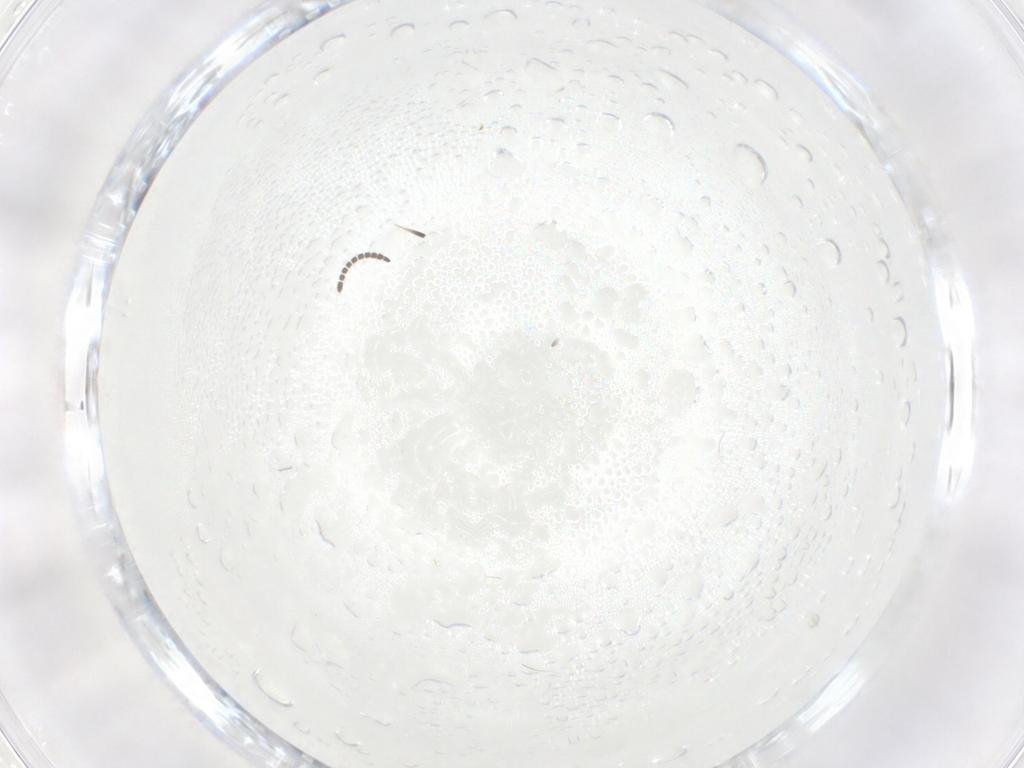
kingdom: Animalia
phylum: Arthropoda
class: Insecta
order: Diptera
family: Sciaridae
